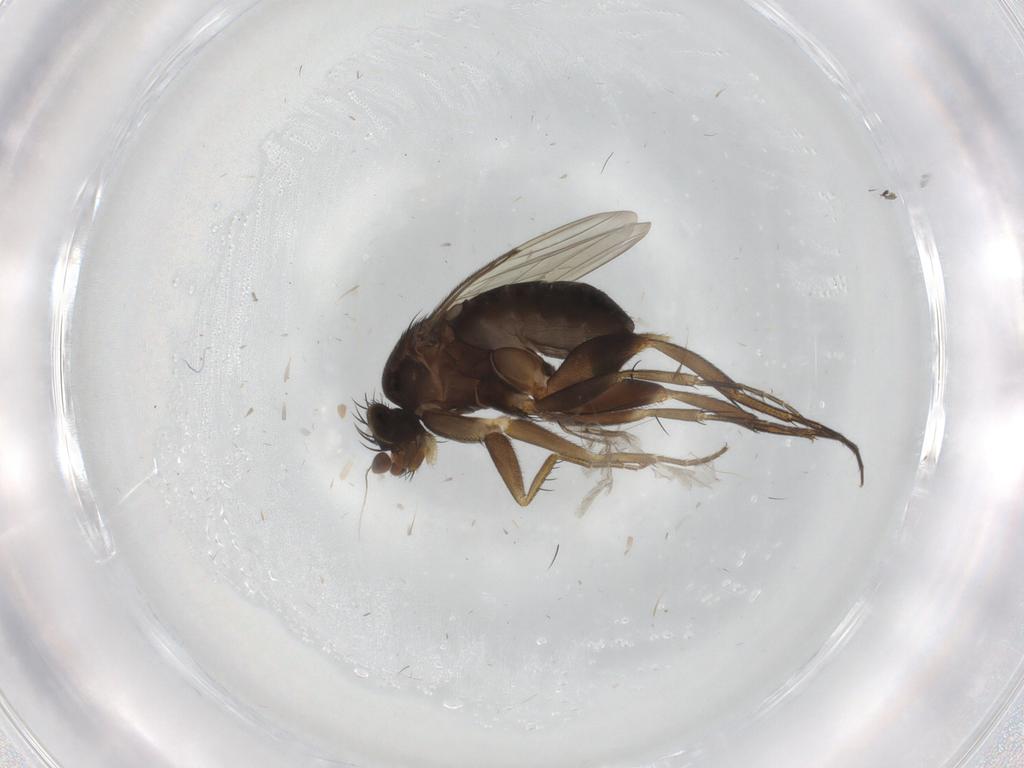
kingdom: Animalia
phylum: Arthropoda
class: Insecta
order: Diptera
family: Phoridae
